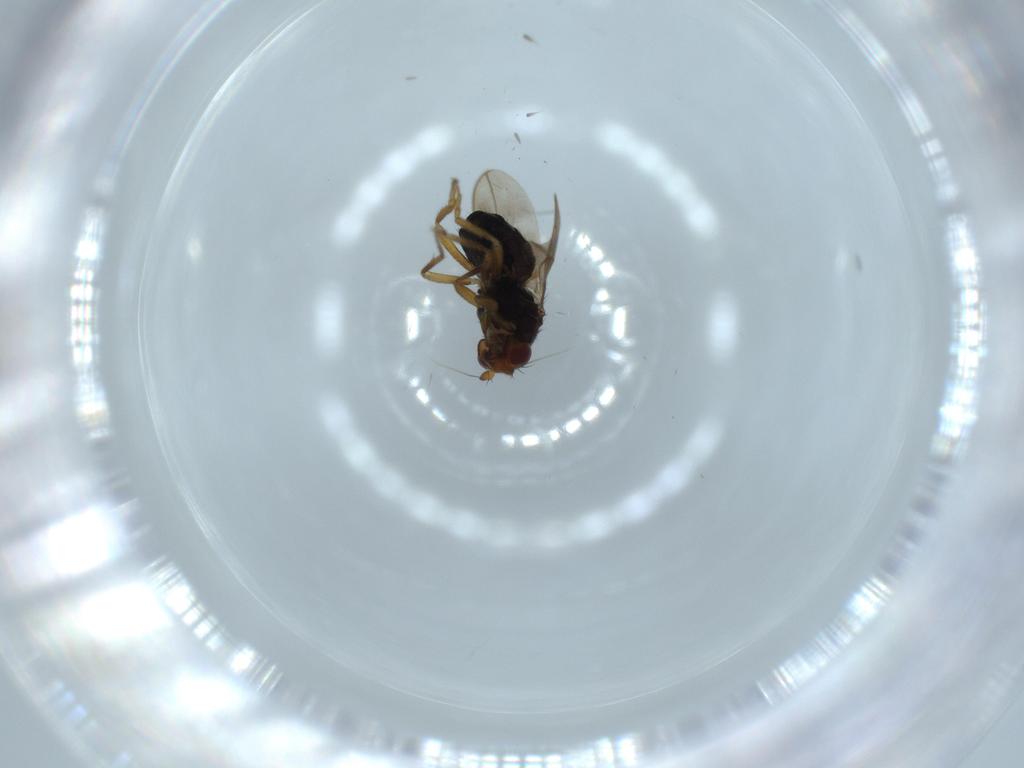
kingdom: Animalia
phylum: Arthropoda
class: Insecta
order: Diptera
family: Sphaeroceridae
